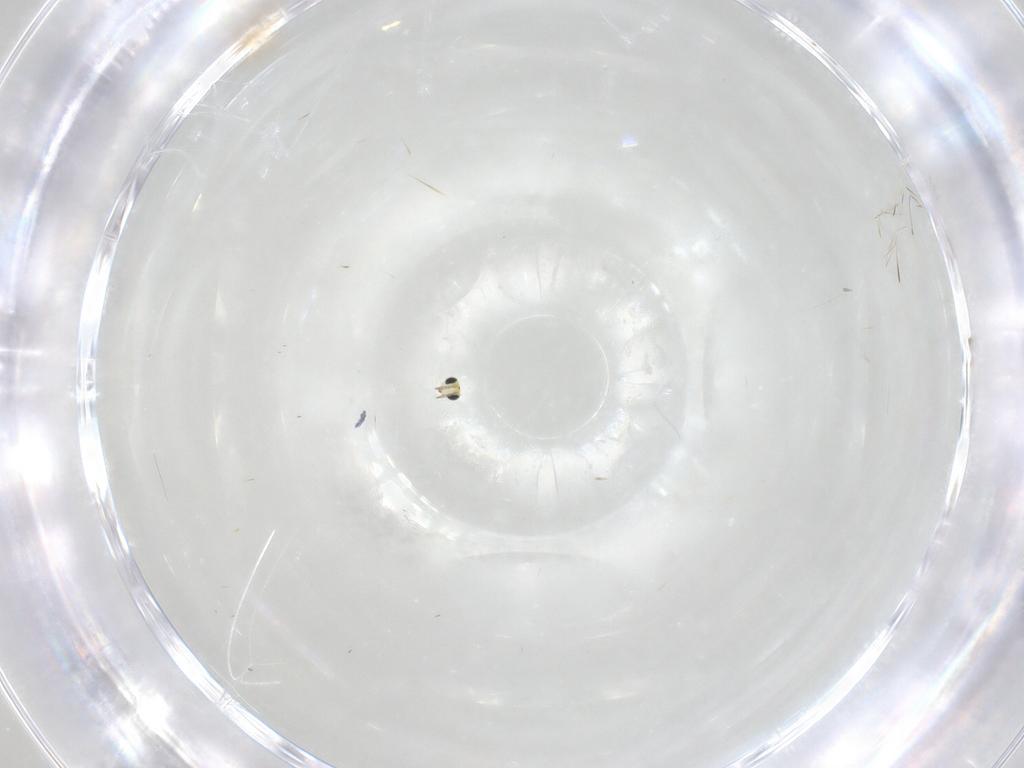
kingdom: Animalia
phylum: Arthropoda
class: Insecta
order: Hymenoptera
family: Trichogrammatidae
